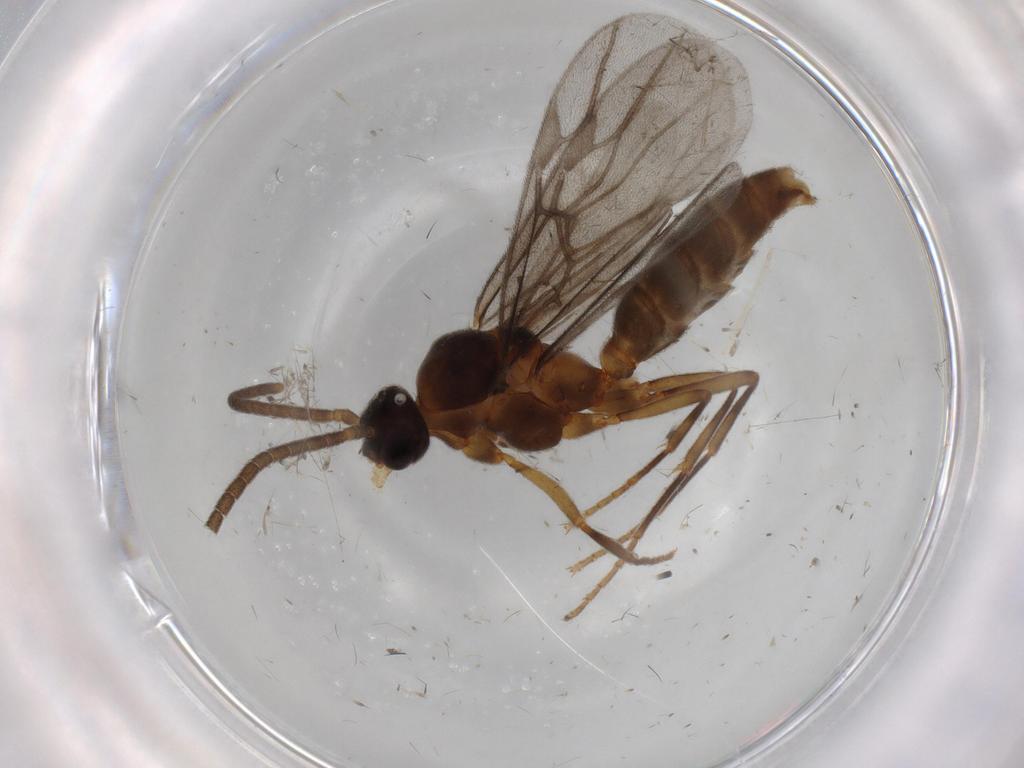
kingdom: Animalia
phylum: Arthropoda
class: Insecta
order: Hymenoptera
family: Formicidae
